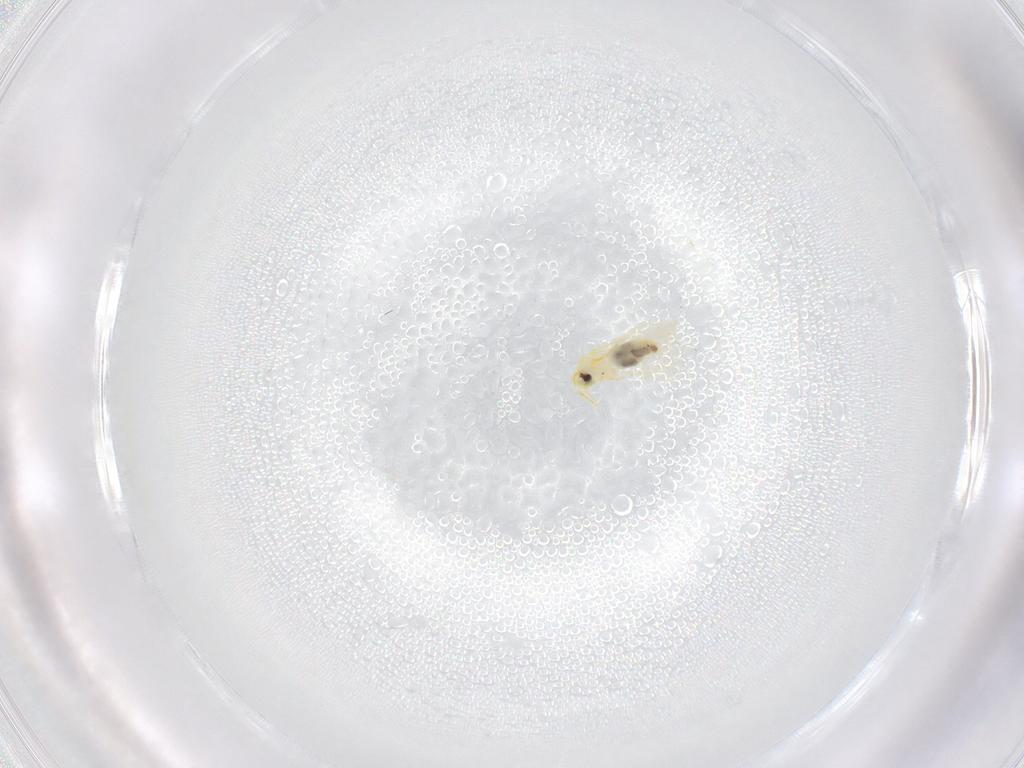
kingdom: Animalia
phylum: Arthropoda
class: Insecta
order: Hemiptera
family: Aleyrodidae
